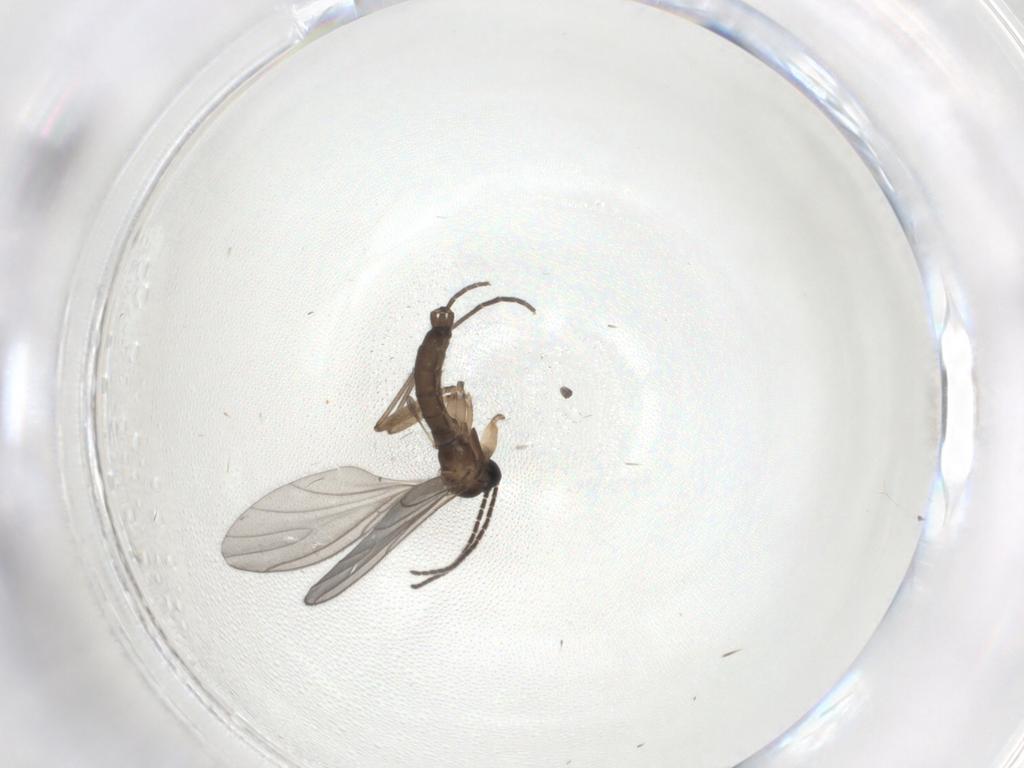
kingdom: Animalia
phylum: Arthropoda
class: Insecta
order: Diptera
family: Sciaridae
